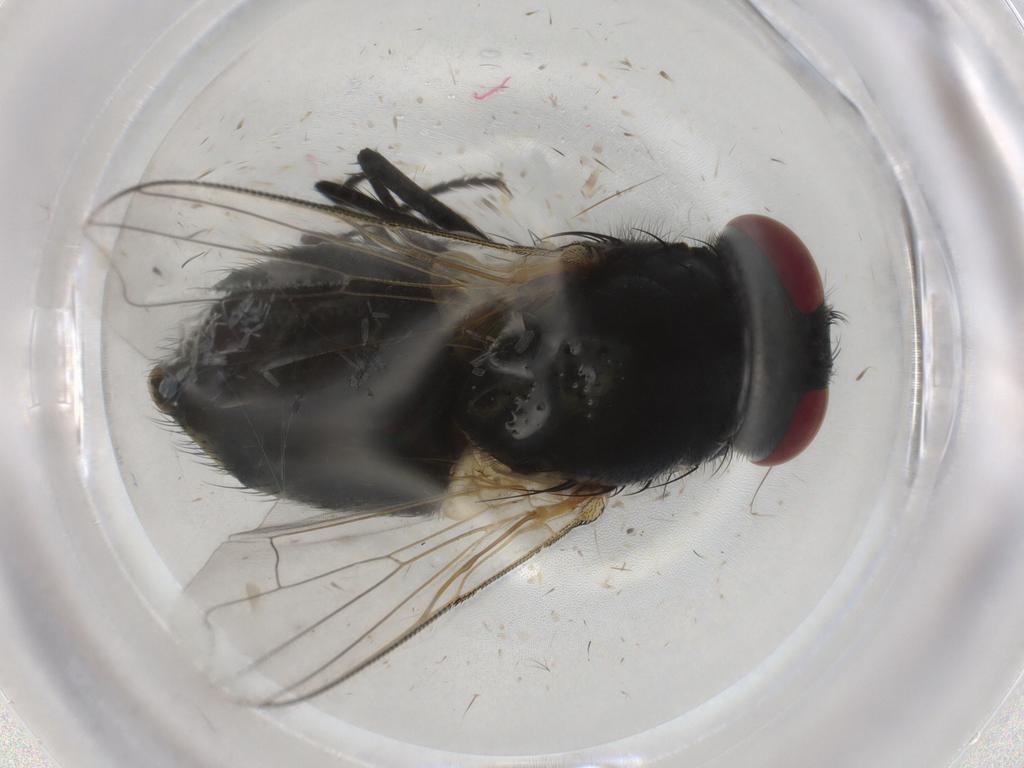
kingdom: Animalia
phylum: Arthropoda
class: Insecta
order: Diptera
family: Muscidae
